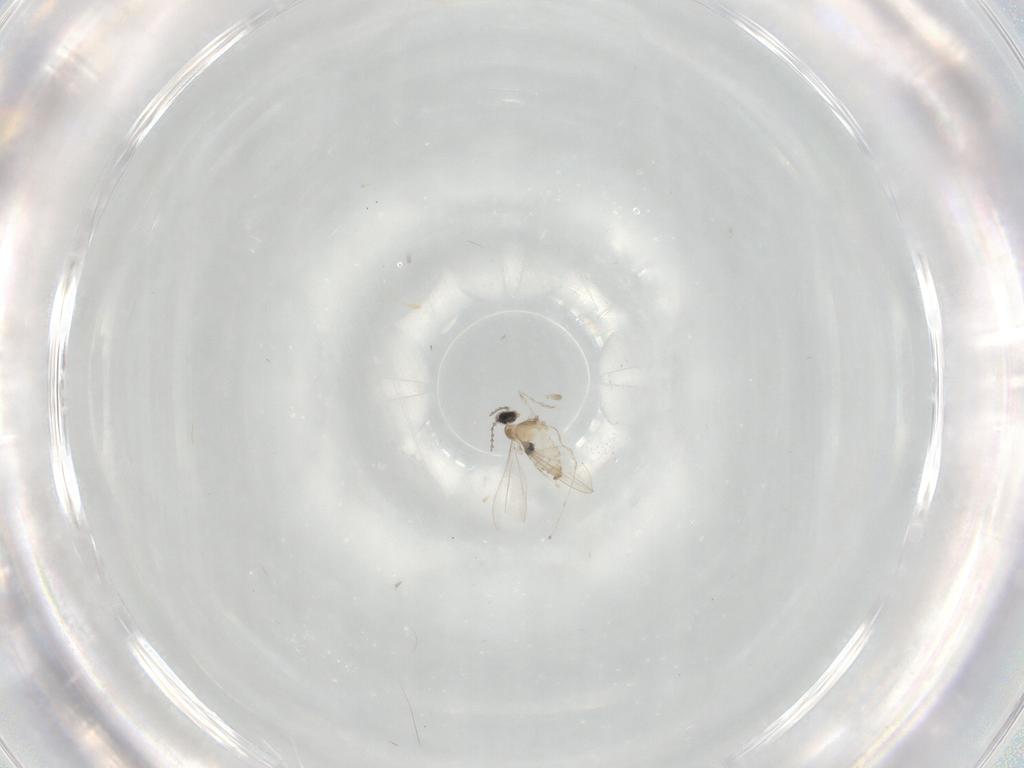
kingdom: Animalia
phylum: Arthropoda
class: Insecta
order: Diptera
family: Cecidomyiidae
